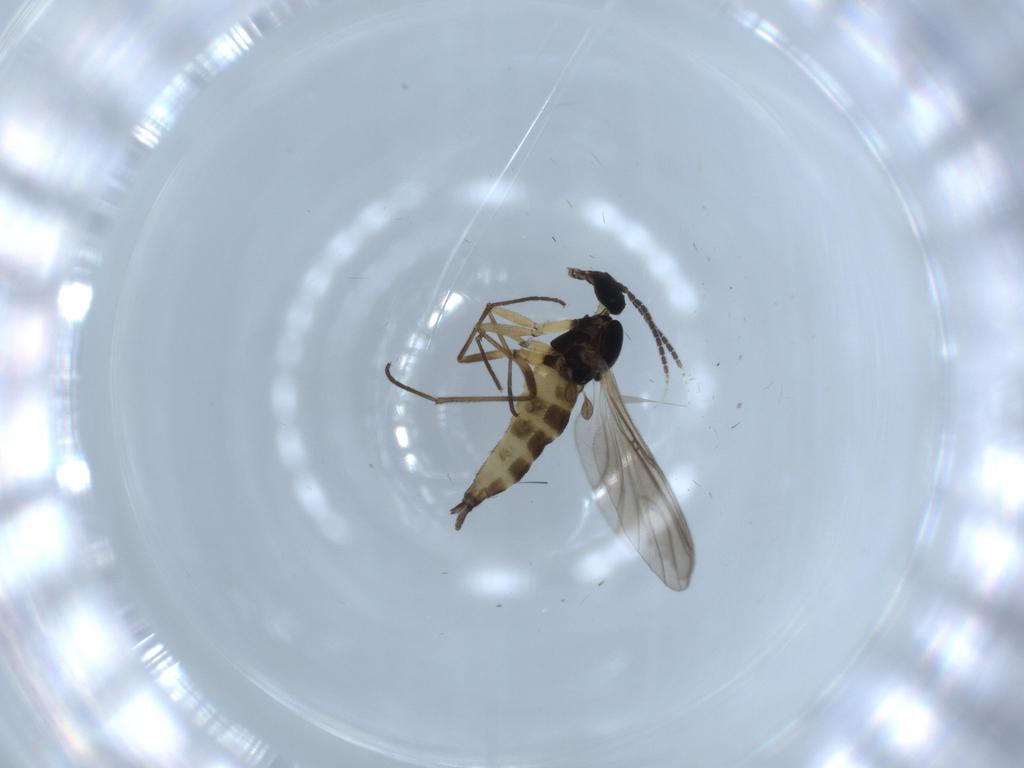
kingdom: Animalia
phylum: Arthropoda
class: Insecta
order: Diptera
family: Sciaridae
